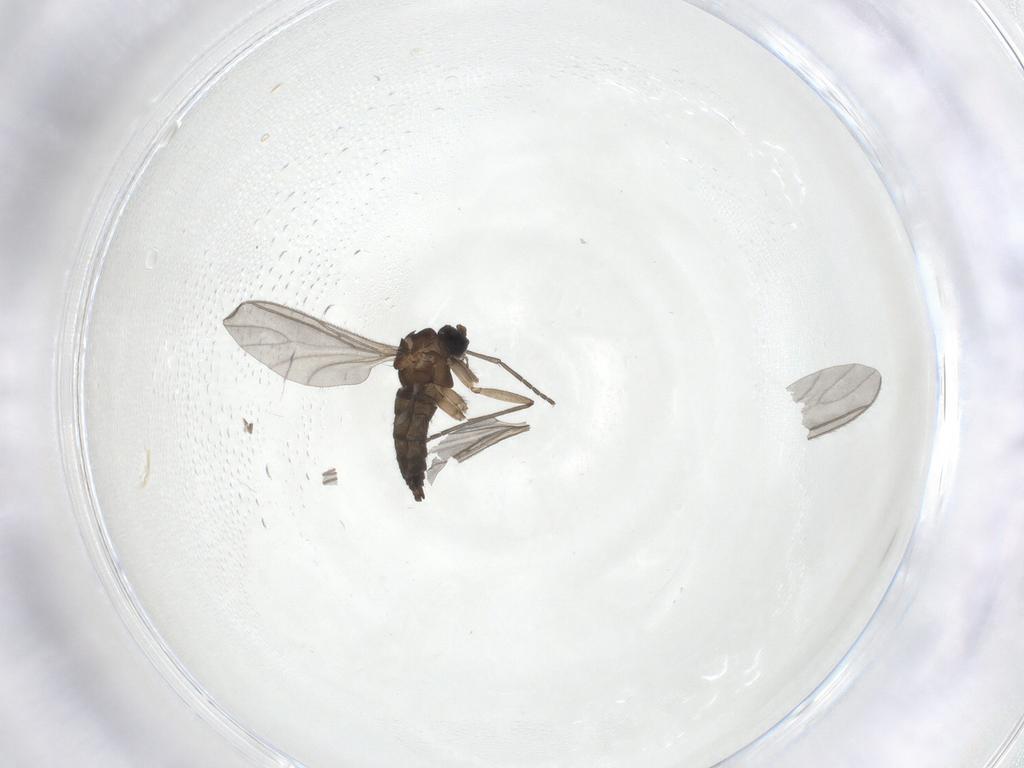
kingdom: Animalia
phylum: Arthropoda
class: Insecta
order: Diptera
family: Sciaridae
